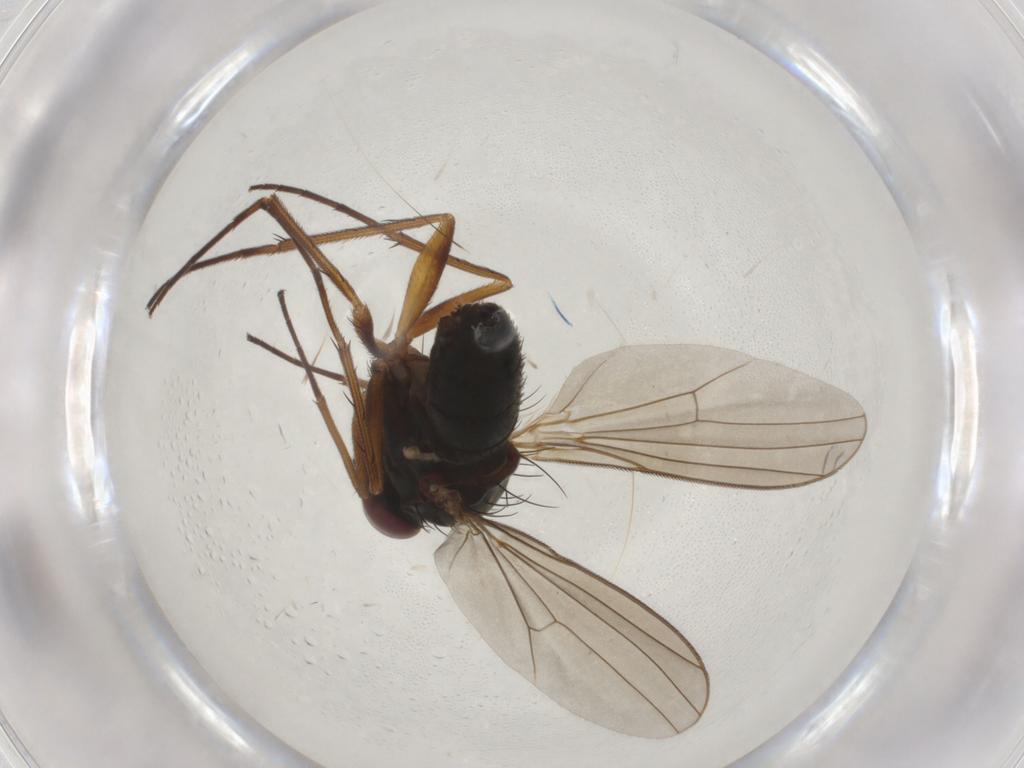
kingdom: Animalia
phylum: Arthropoda
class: Insecta
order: Diptera
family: Dolichopodidae
